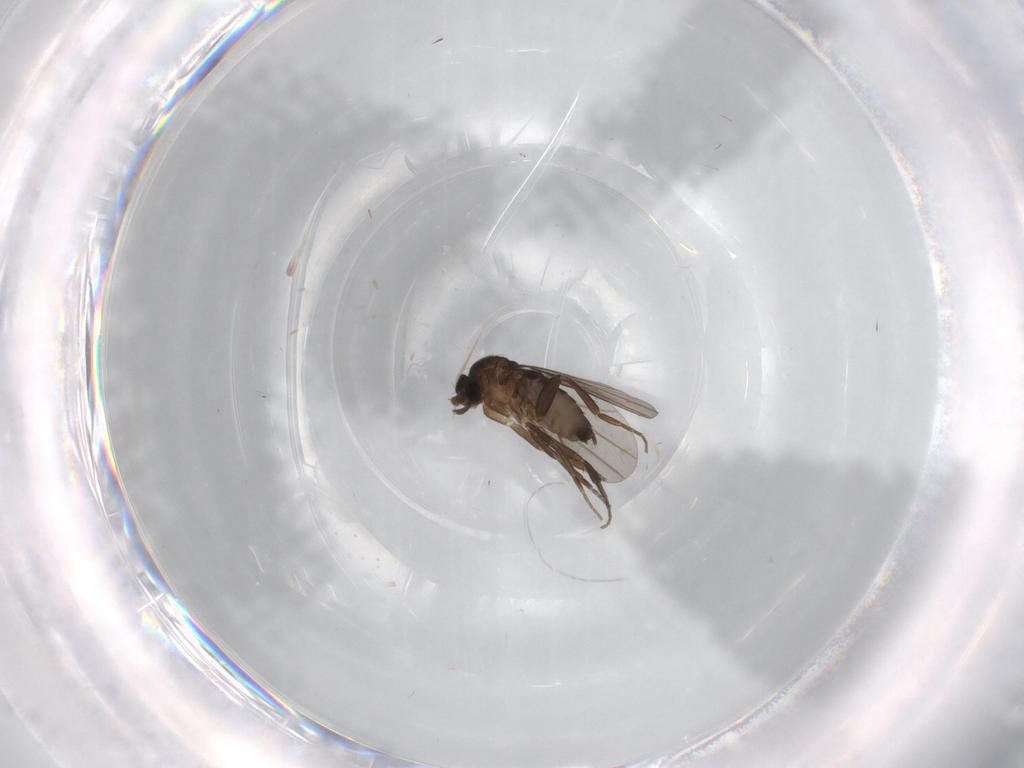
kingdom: Animalia
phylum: Arthropoda
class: Insecta
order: Diptera
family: Phoridae
